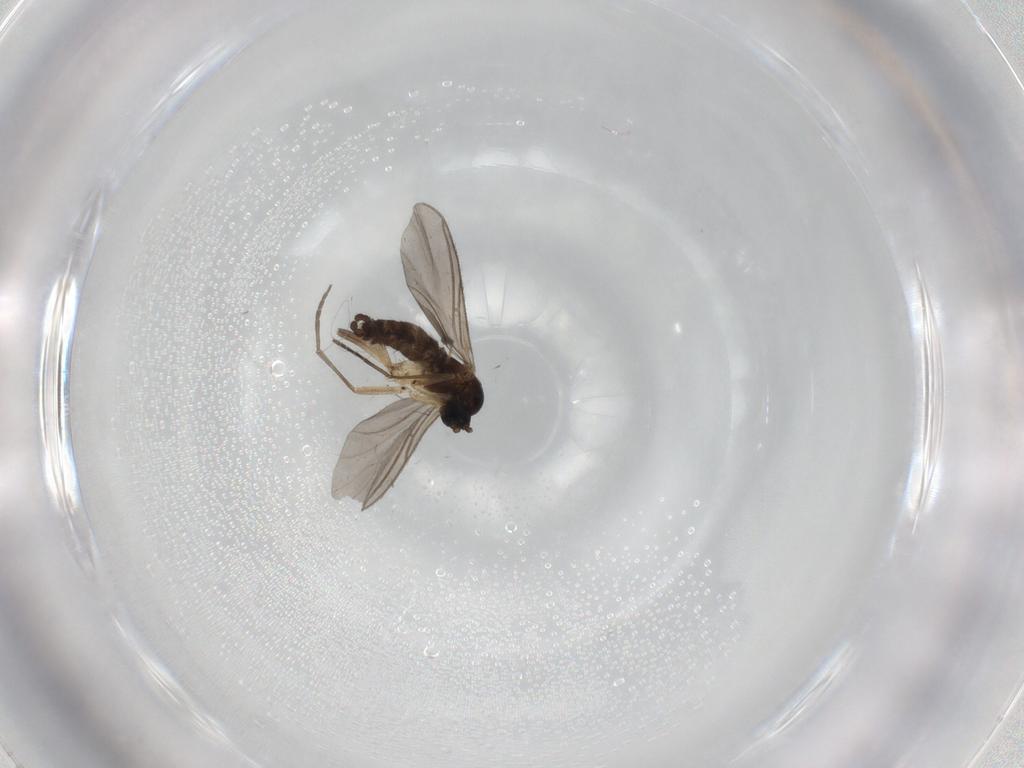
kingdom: Animalia
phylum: Arthropoda
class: Insecta
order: Diptera
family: Sciaridae
